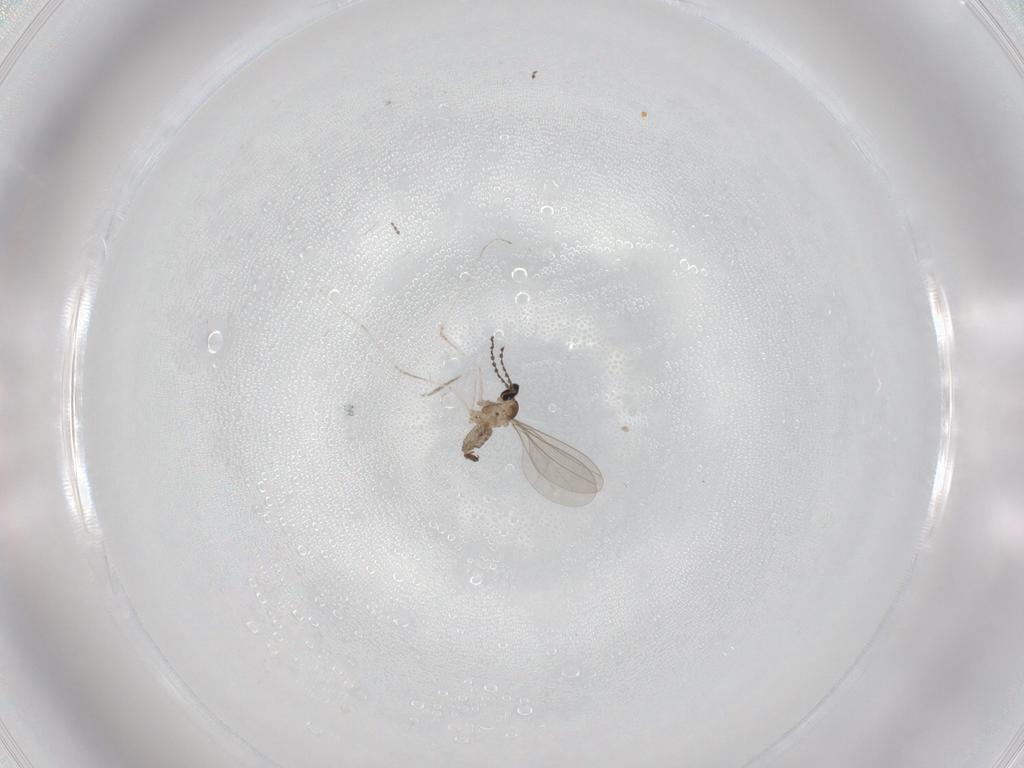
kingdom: Animalia
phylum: Arthropoda
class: Insecta
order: Diptera
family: Cecidomyiidae
